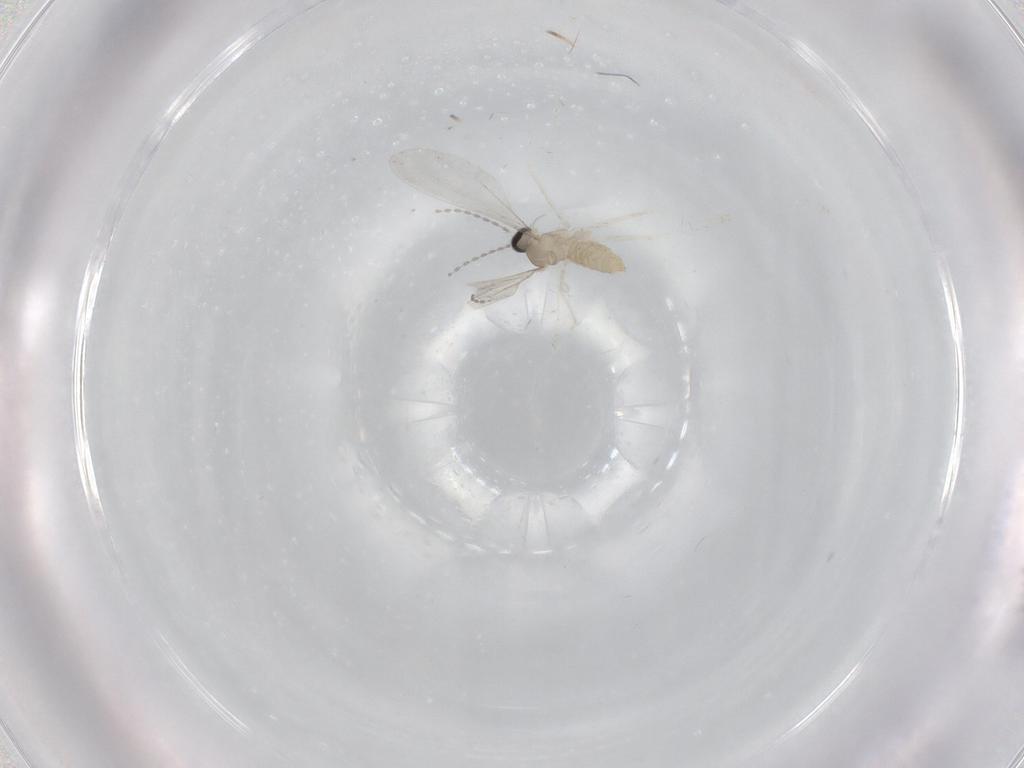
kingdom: Animalia
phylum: Arthropoda
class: Insecta
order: Diptera
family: Cecidomyiidae
